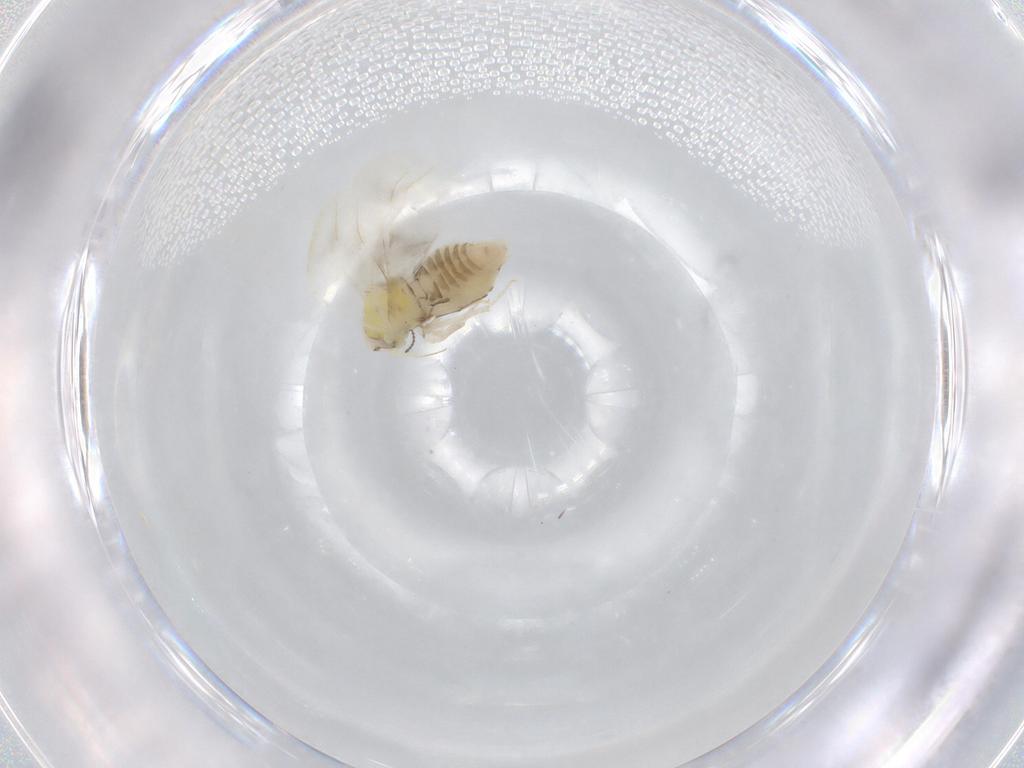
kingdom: Animalia
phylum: Arthropoda
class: Insecta
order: Hemiptera
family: Aleyrodidae
